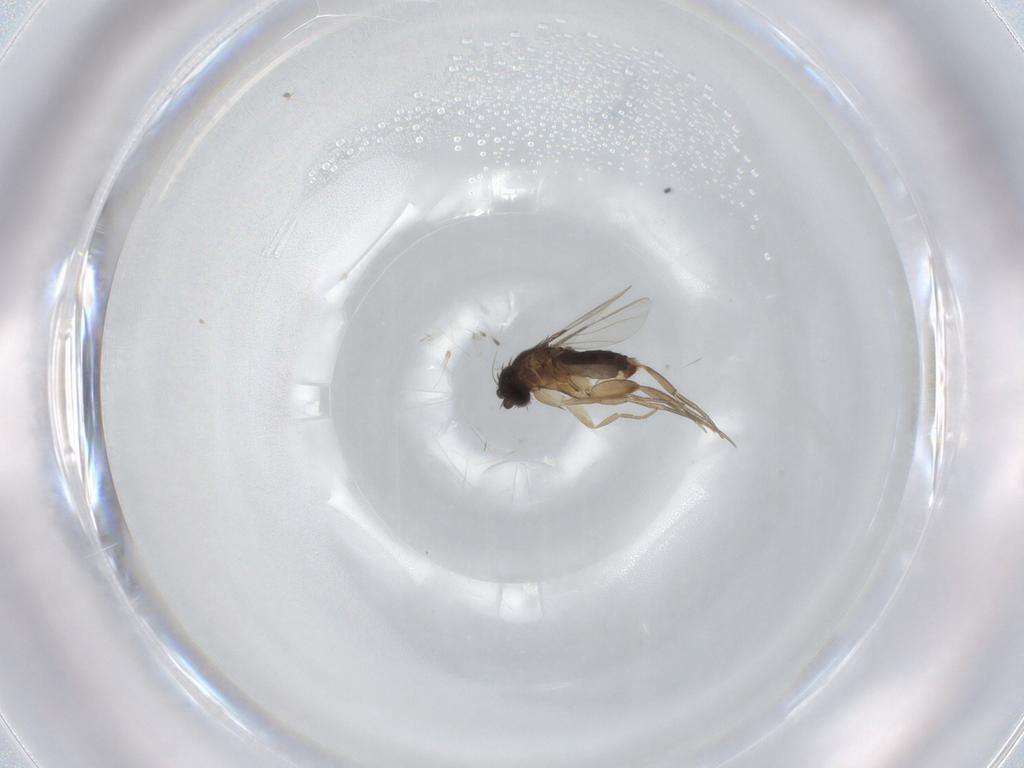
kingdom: Animalia
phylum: Arthropoda
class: Insecta
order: Diptera
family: Phoridae
